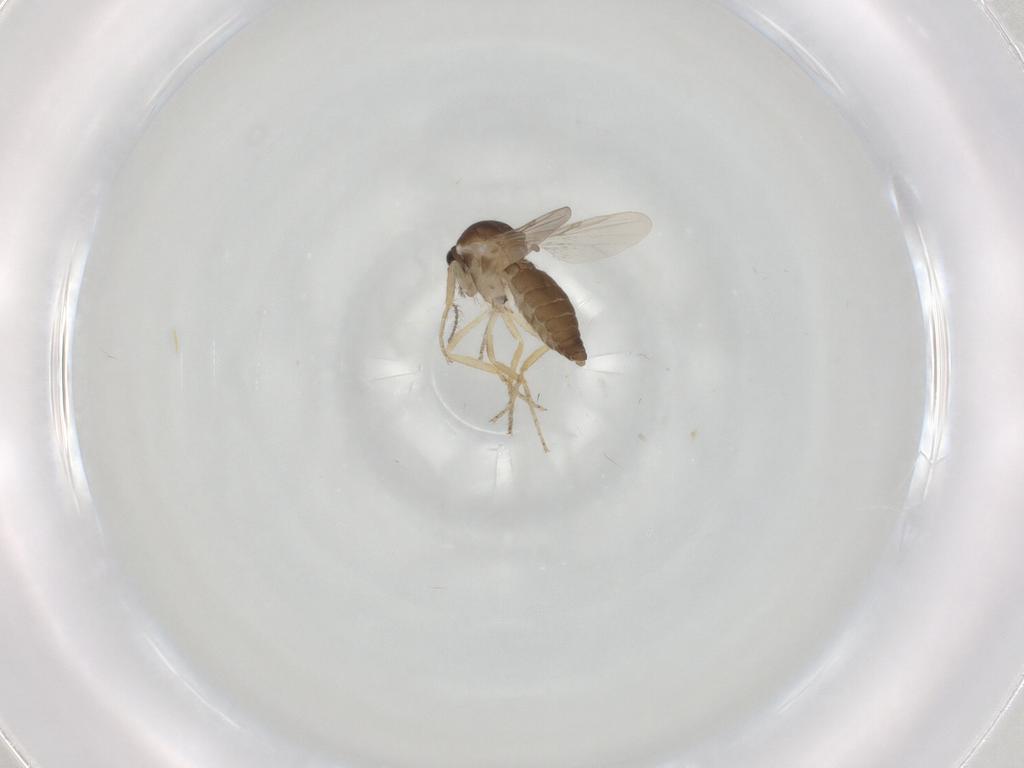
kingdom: Animalia
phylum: Arthropoda
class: Insecta
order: Diptera
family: Ceratopogonidae
